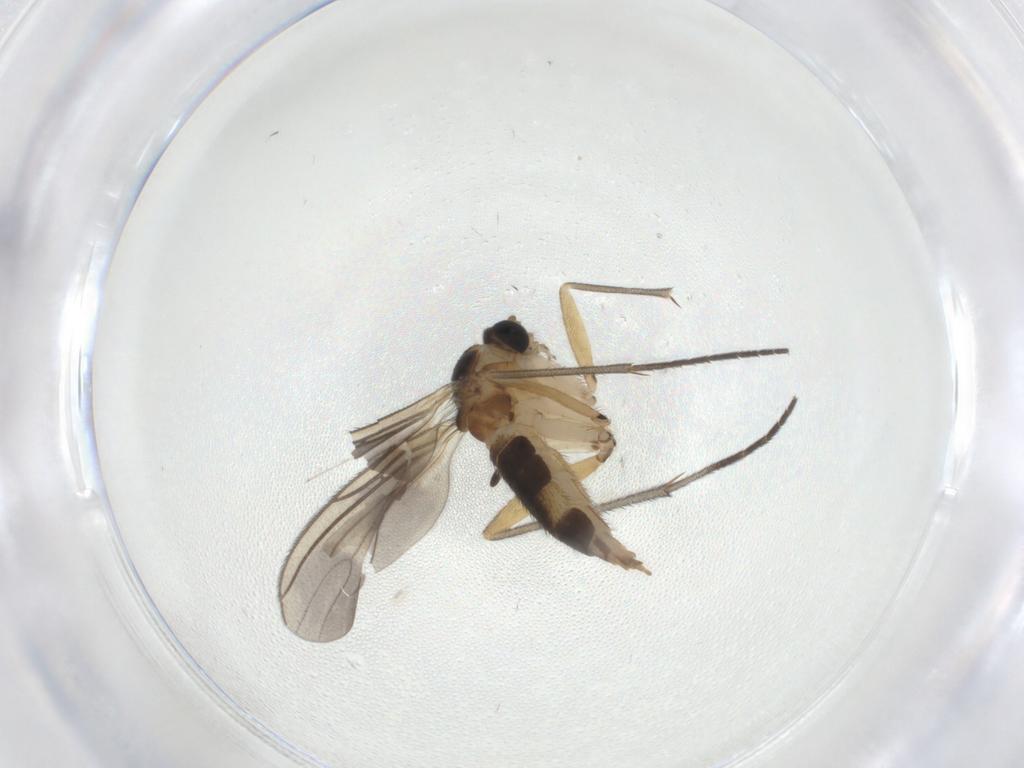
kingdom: Animalia
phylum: Arthropoda
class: Insecta
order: Diptera
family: Sciaridae
